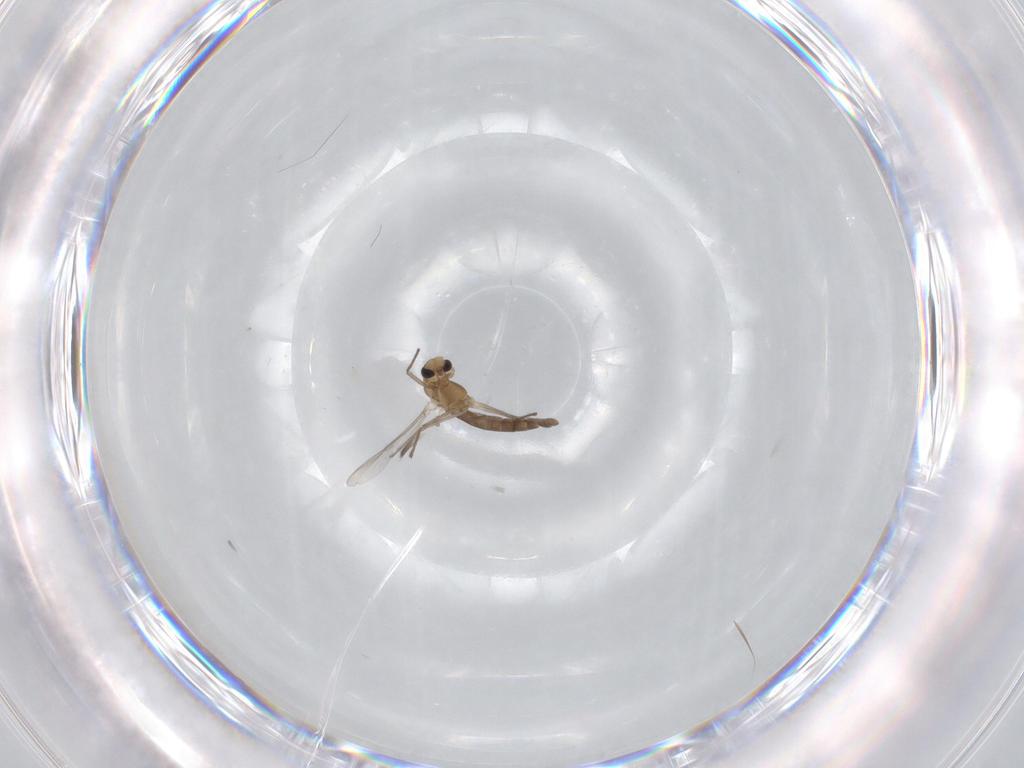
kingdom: Animalia
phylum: Arthropoda
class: Insecta
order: Diptera
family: Sciaridae
